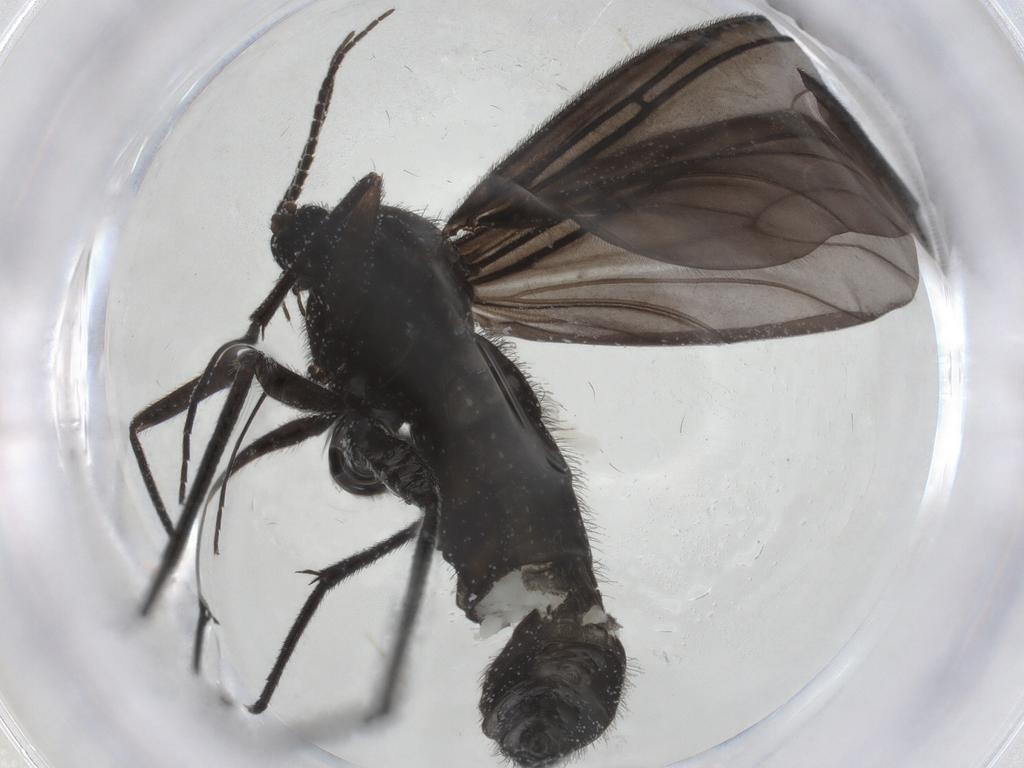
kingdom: Animalia
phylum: Arthropoda
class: Insecta
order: Diptera
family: Sciaridae
